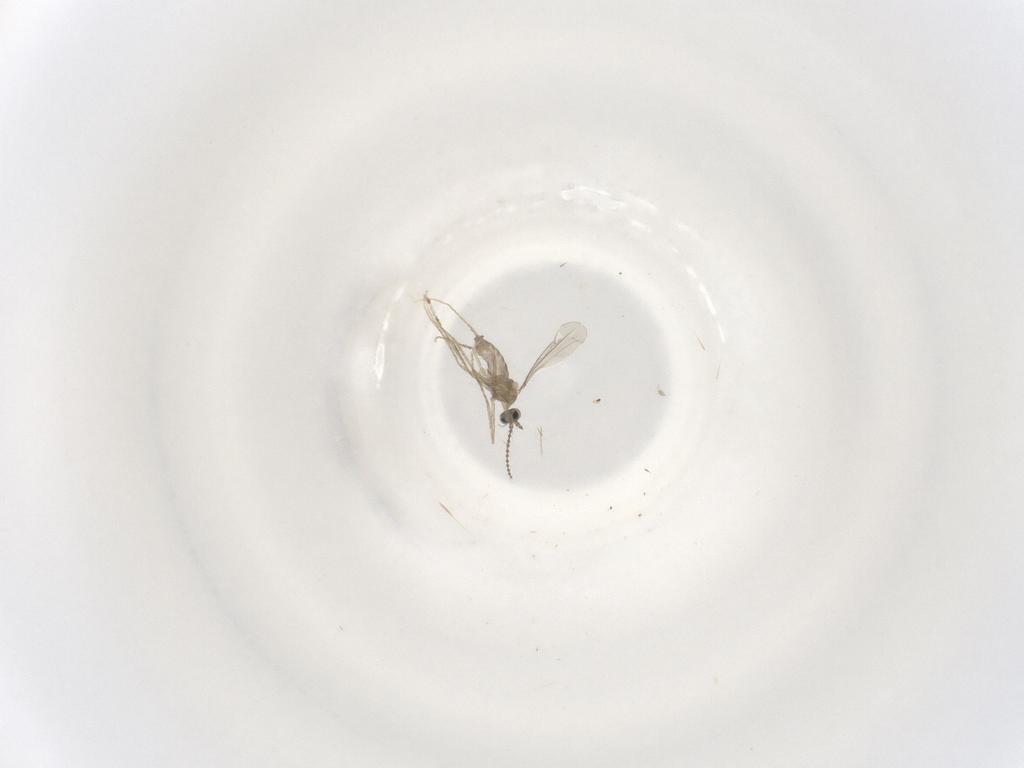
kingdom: Animalia
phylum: Arthropoda
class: Insecta
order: Diptera
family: Cecidomyiidae
